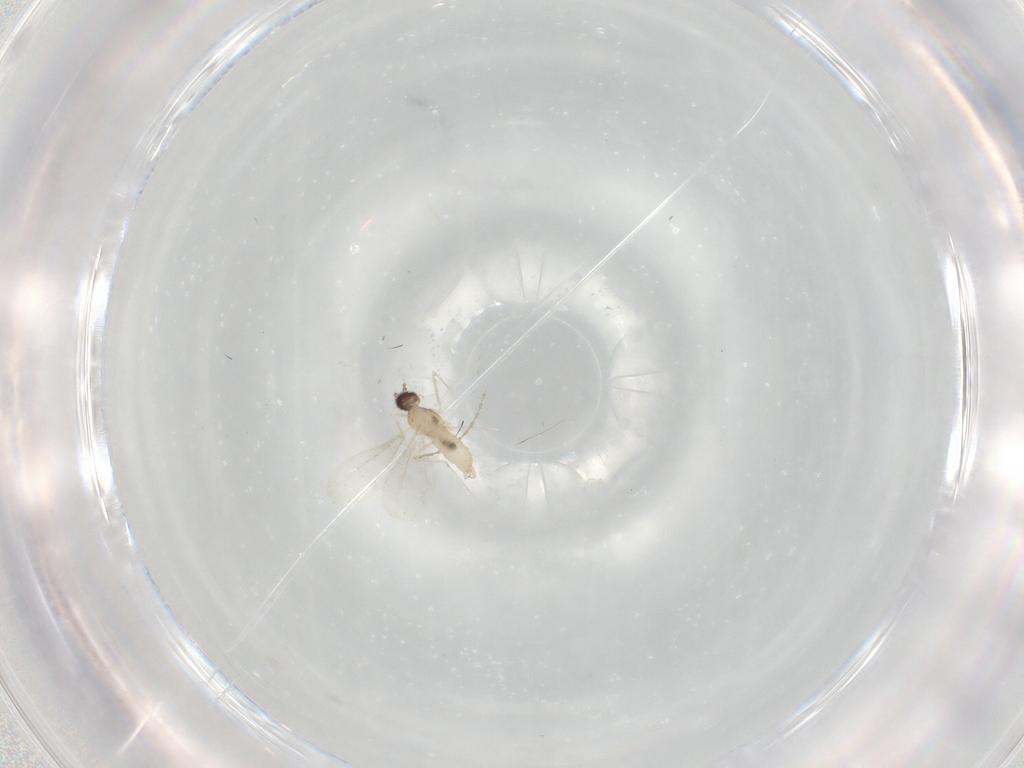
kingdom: Animalia
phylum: Arthropoda
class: Insecta
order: Diptera
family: Cecidomyiidae
